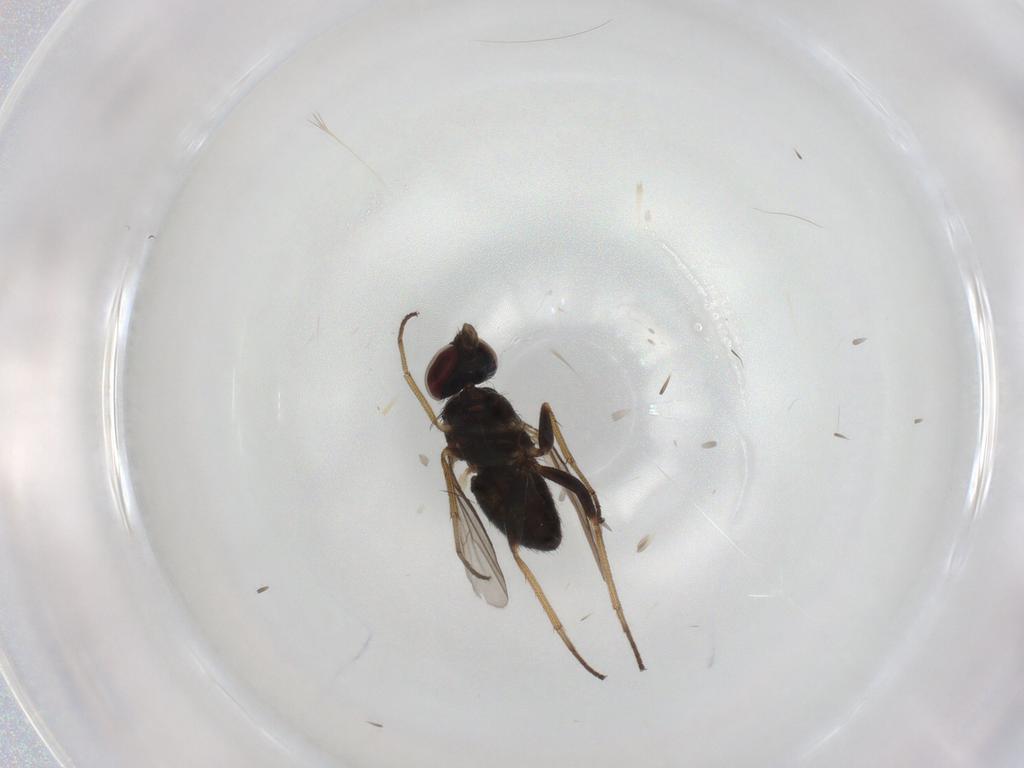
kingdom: Animalia
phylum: Arthropoda
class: Insecta
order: Diptera
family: Dolichopodidae
